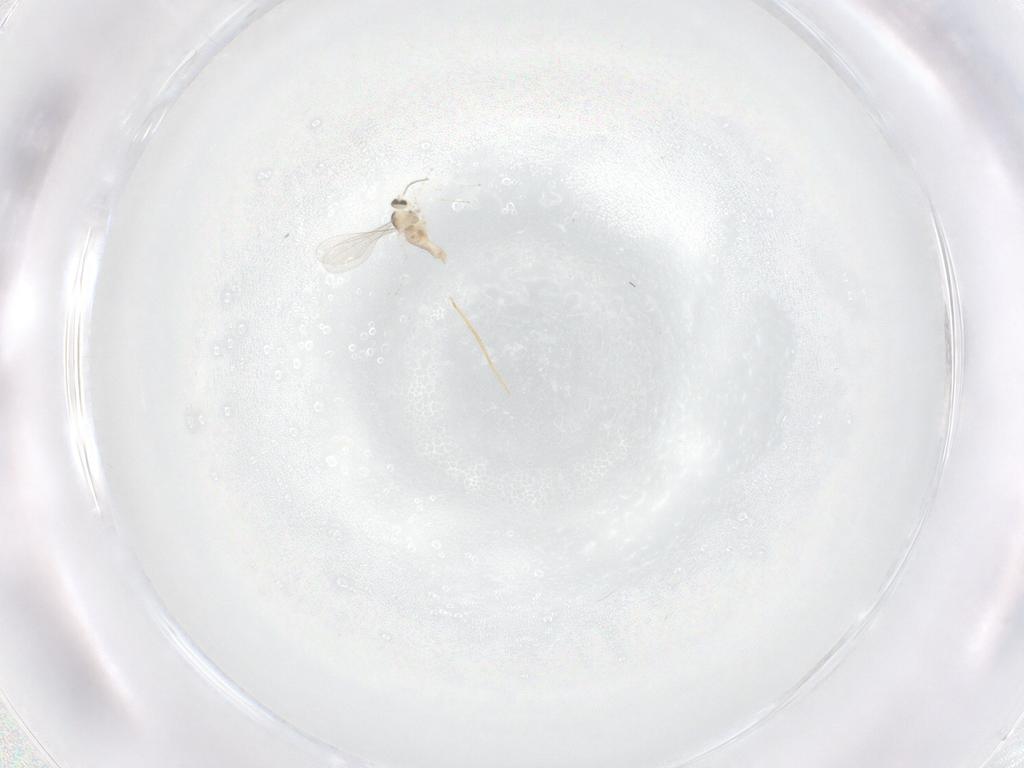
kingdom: Animalia
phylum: Arthropoda
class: Insecta
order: Diptera
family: Cecidomyiidae
